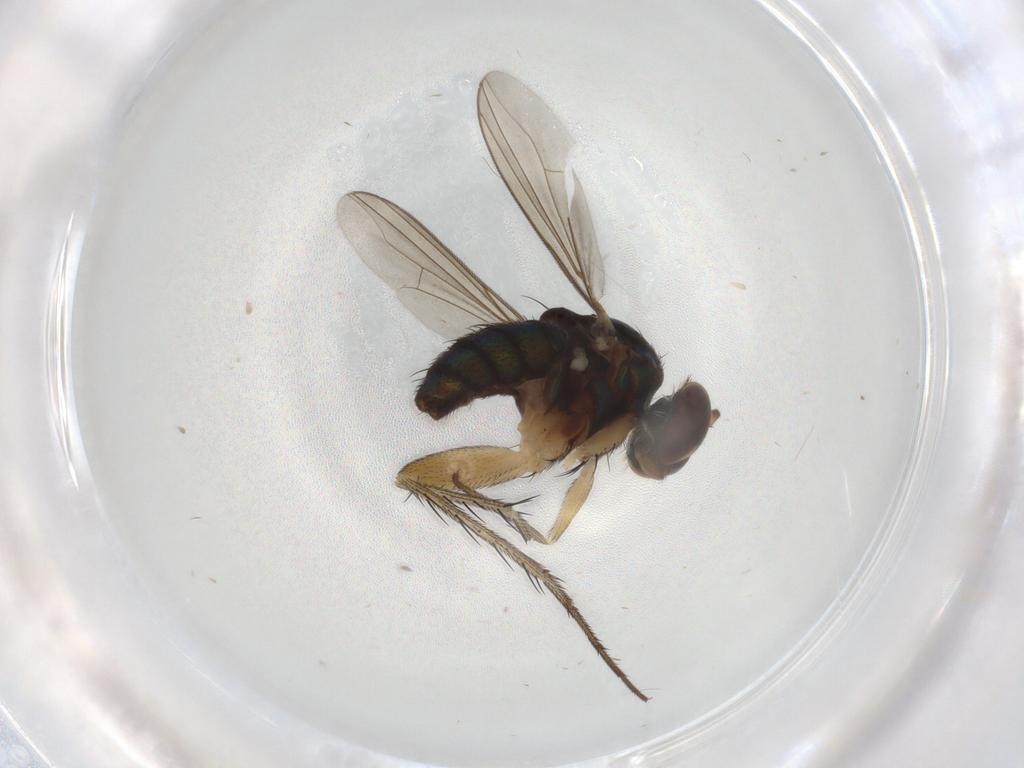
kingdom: Animalia
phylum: Arthropoda
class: Insecta
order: Diptera
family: Dolichopodidae
